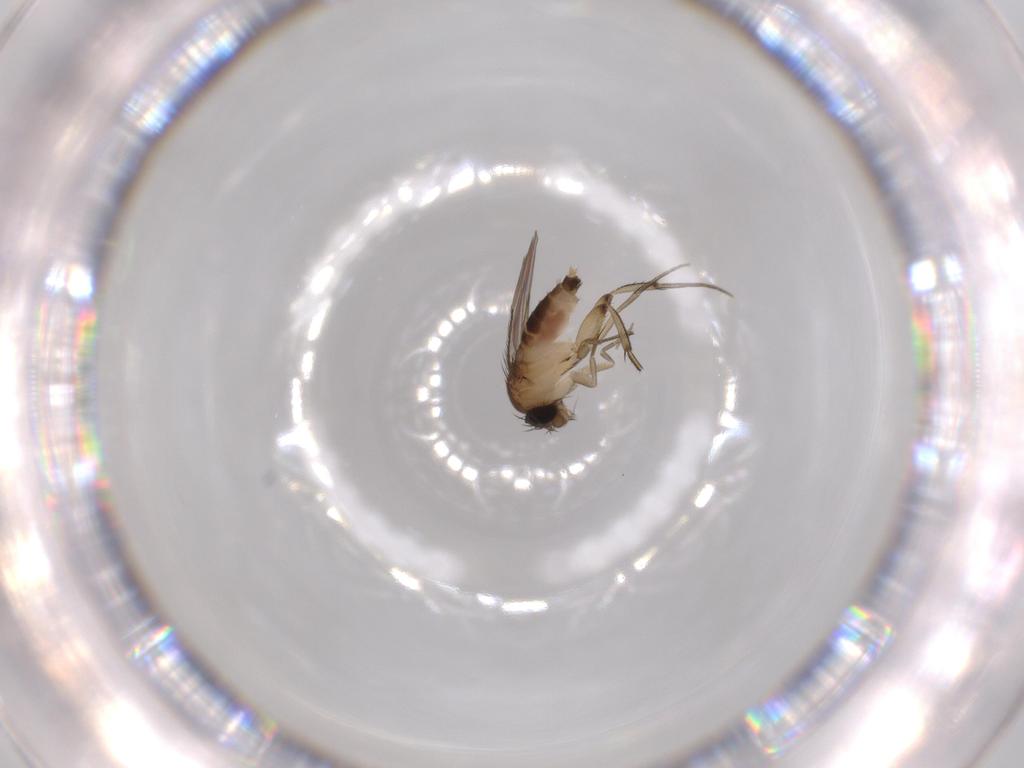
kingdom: Animalia
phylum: Arthropoda
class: Insecta
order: Diptera
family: Phoridae
